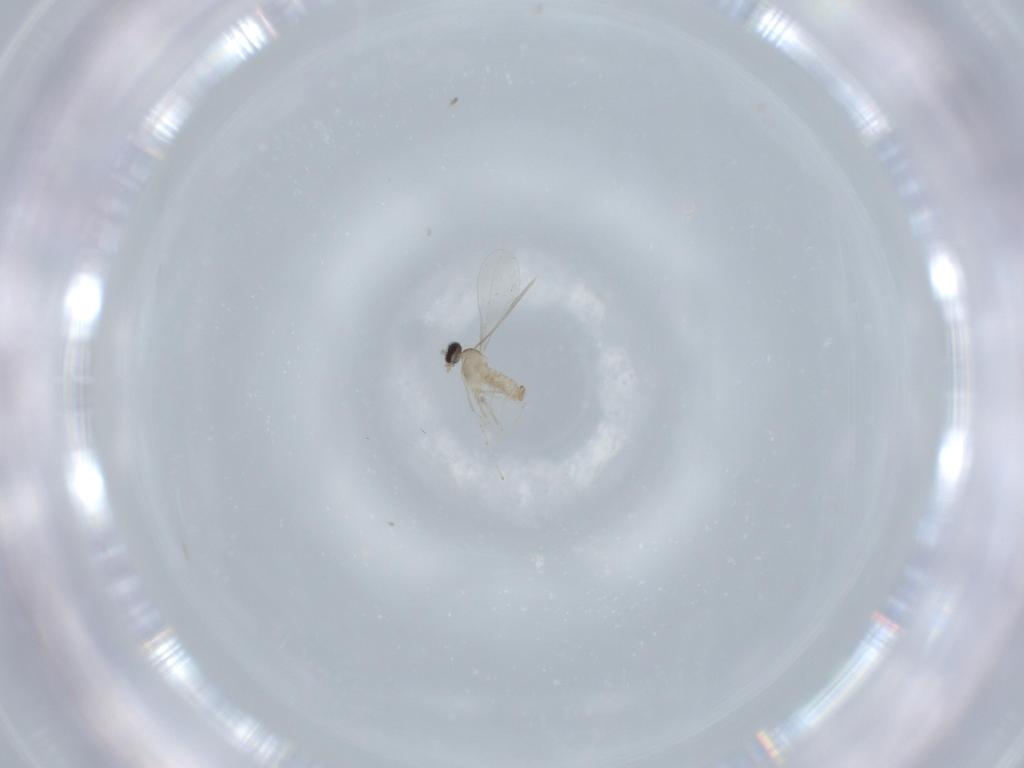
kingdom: Animalia
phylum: Arthropoda
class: Insecta
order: Diptera
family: Cecidomyiidae
